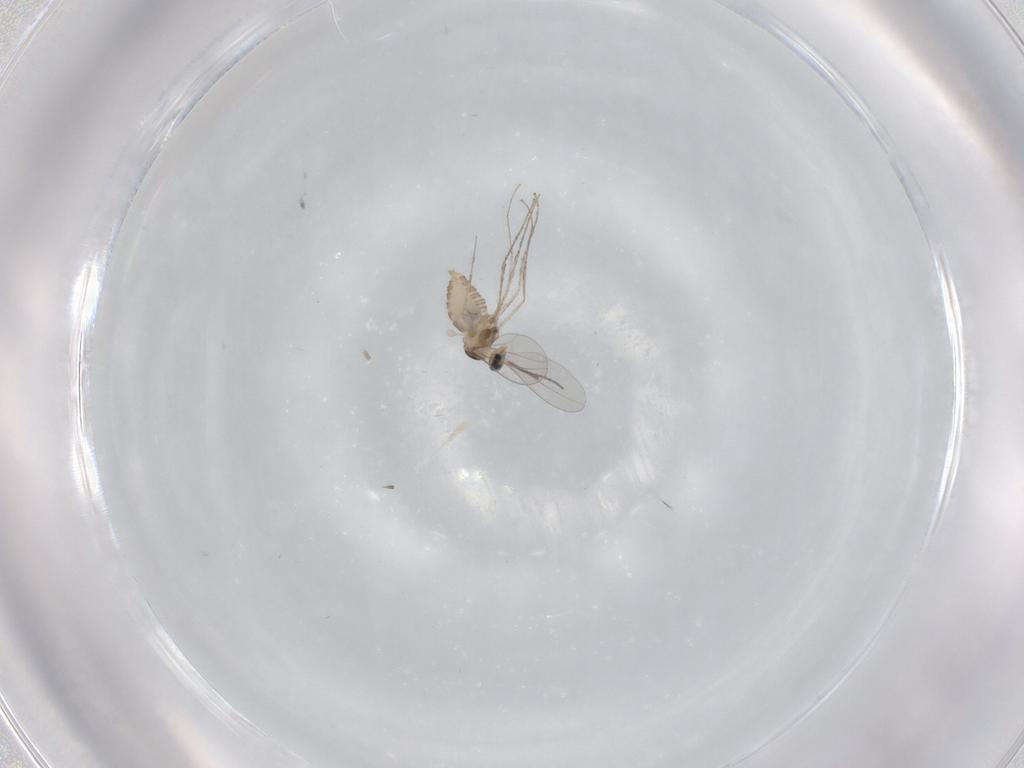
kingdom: Animalia
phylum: Arthropoda
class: Insecta
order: Diptera
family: Cecidomyiidae
